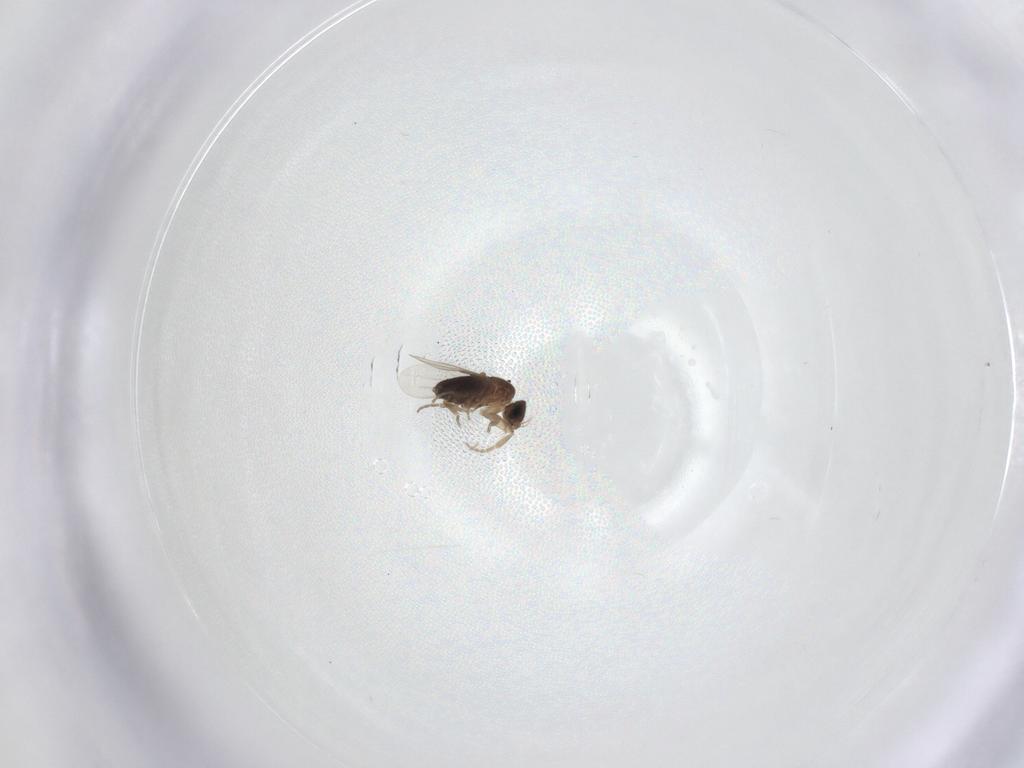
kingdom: Animalia
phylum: Arthropoda
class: Insecta
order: Diptera
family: Phoridae
